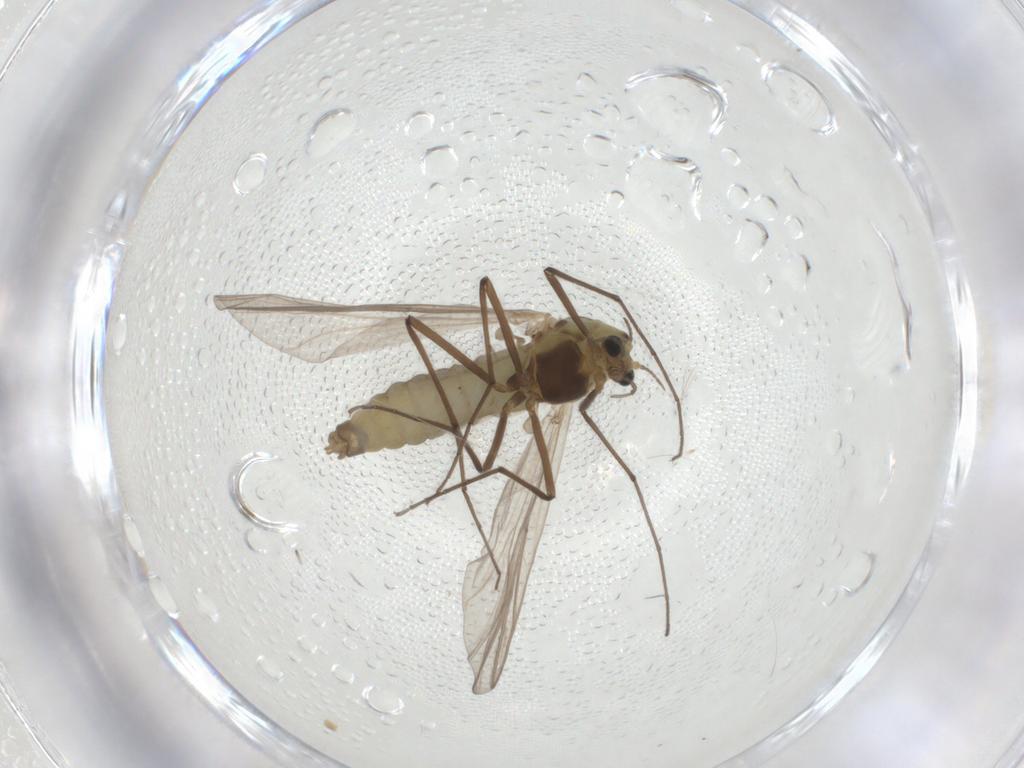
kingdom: Animalia
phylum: Arthropoda
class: Insecta
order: Diptera
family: Chironomidae
